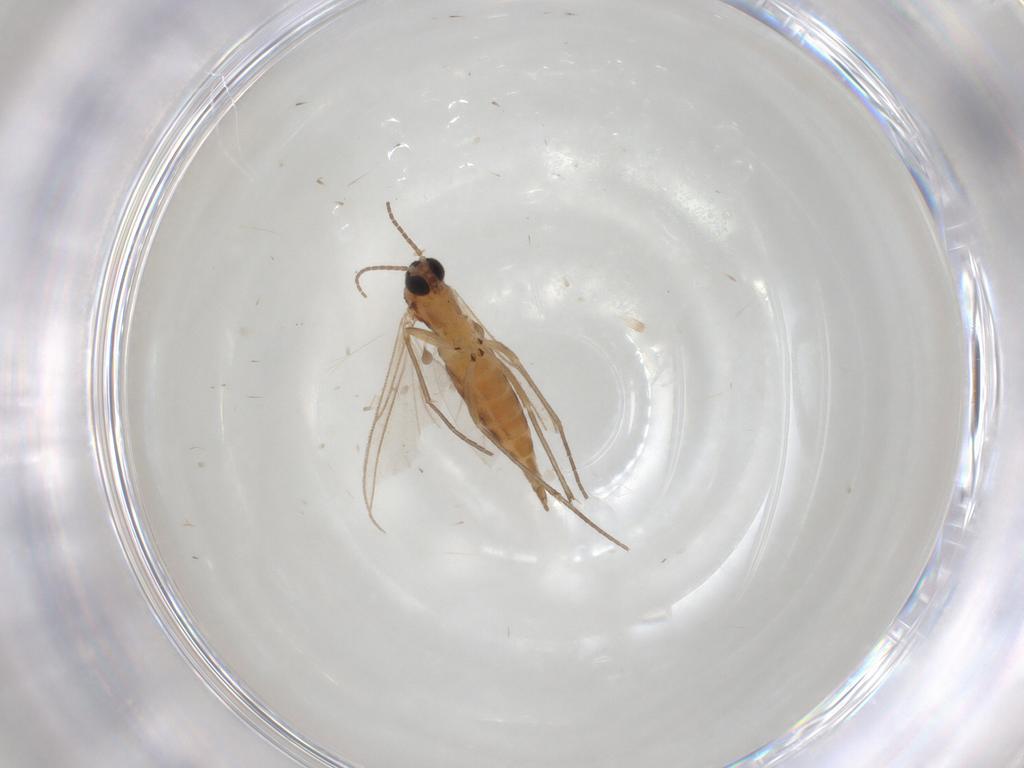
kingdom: Animalia
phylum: Arthropoda
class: Insecta
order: Diptera
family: Sciaridae
